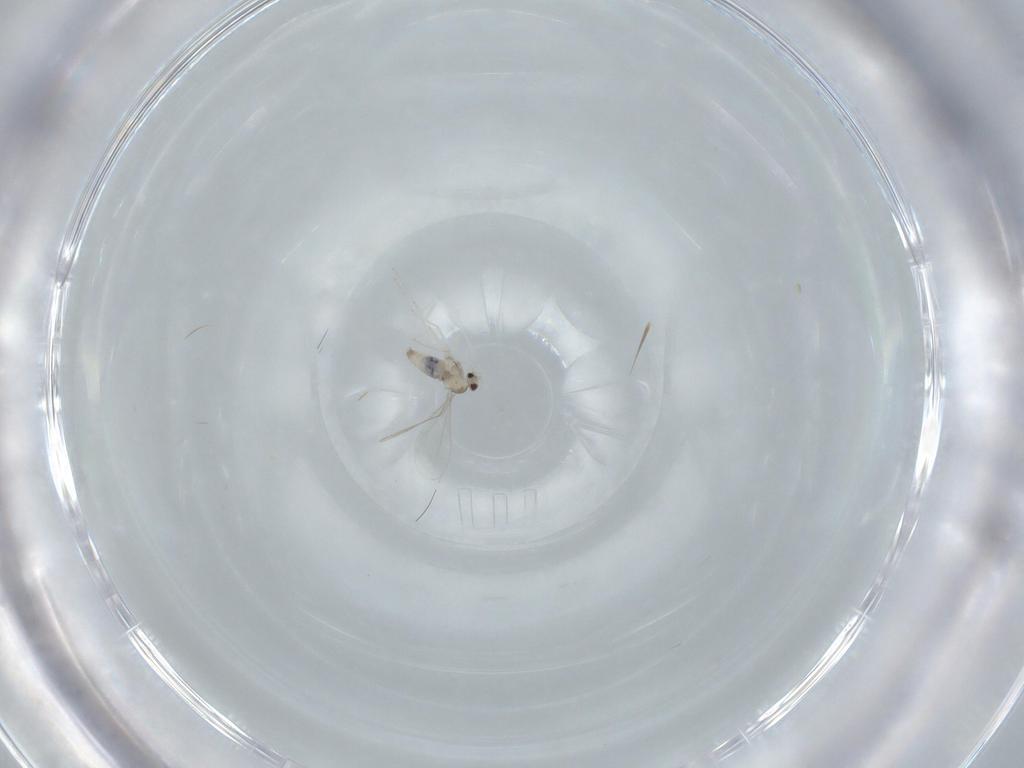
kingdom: Animalia
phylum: Arthropoda
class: Insecta
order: Diptera
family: Cecidomyiidae
